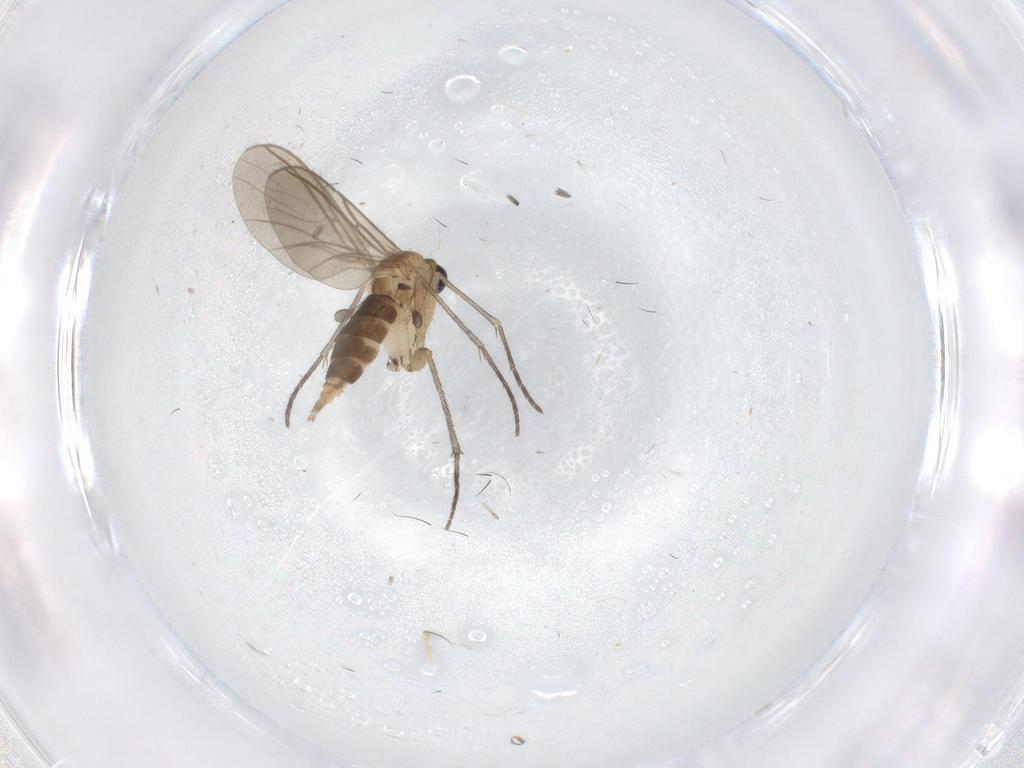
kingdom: Animalia
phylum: Arthropoda
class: Insecta
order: Diptera
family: Sciaridae
